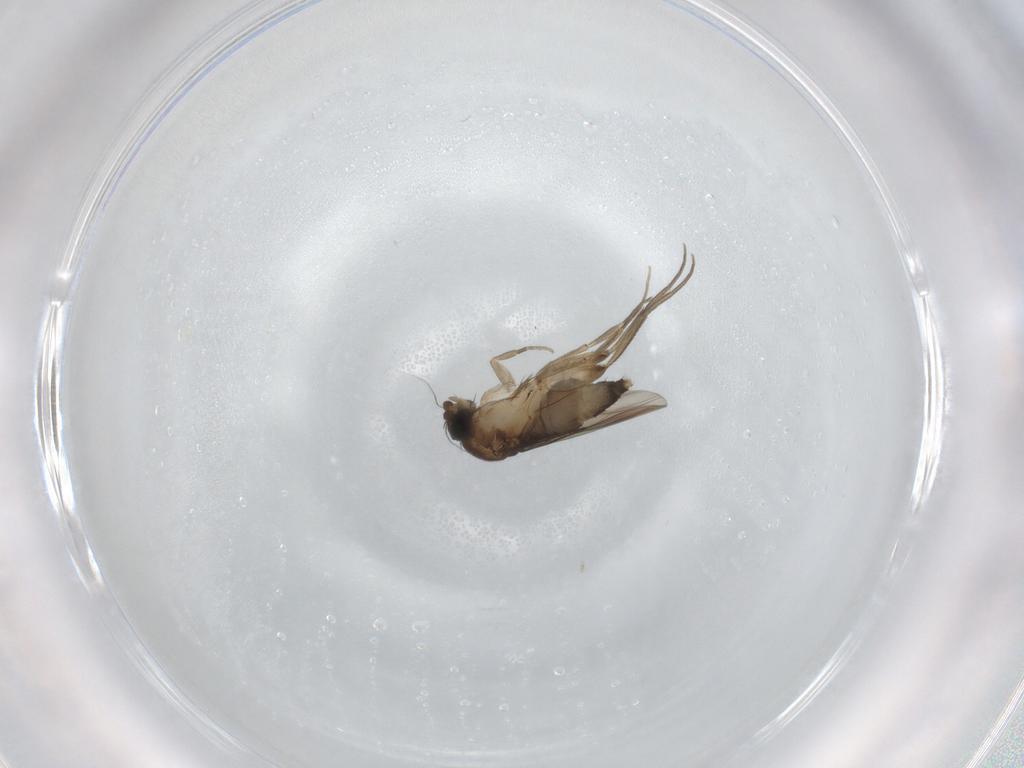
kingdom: Animalia
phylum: Arthropoda
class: Insecta
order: Diptera
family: Phoridae
